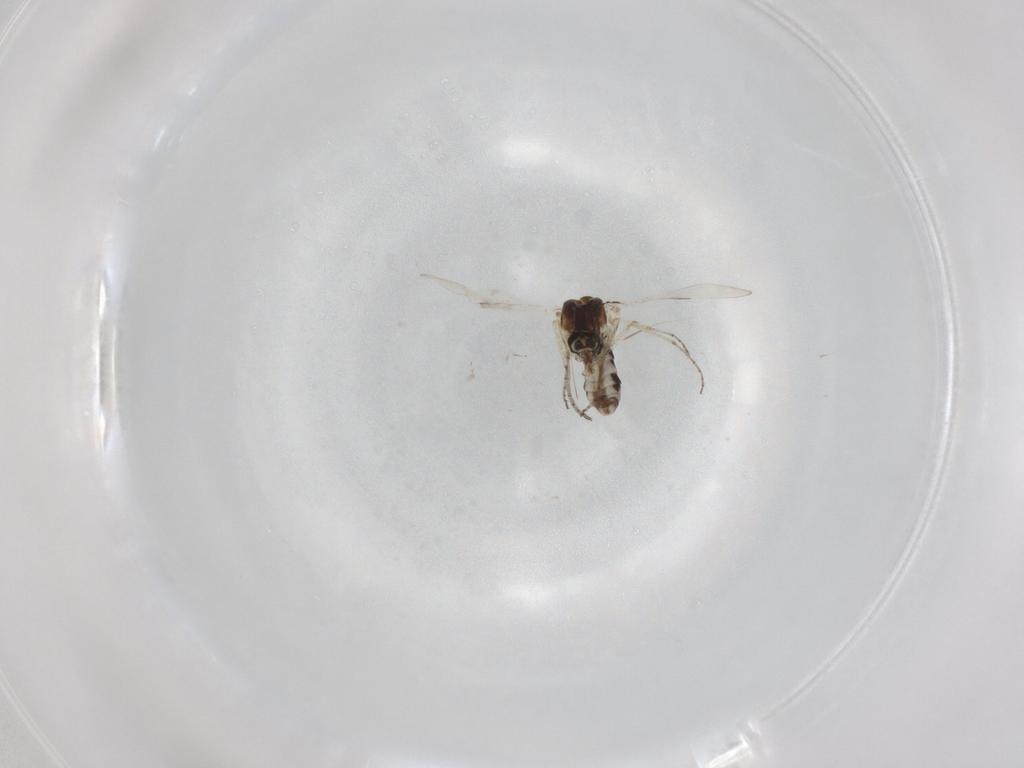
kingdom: Animalia
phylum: Arthropoda
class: Insecta
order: Diptera
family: Ceratopogonidae
